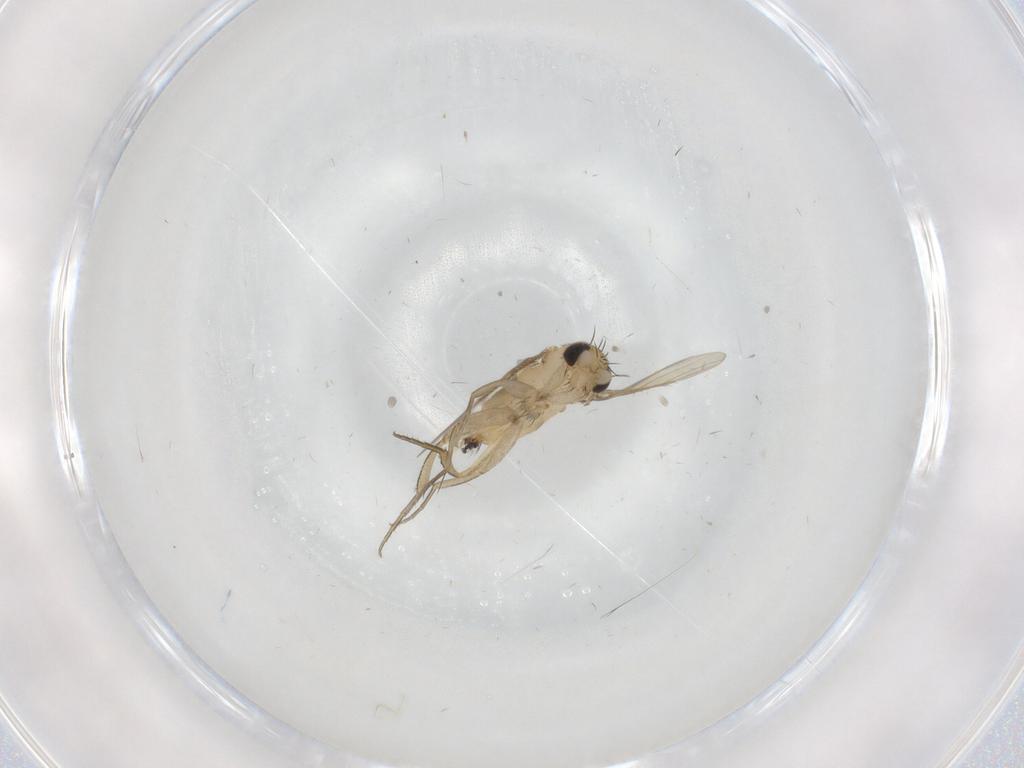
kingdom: Animalia
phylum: Arthropoda
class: Insecta
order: Diptera
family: Phoridae
